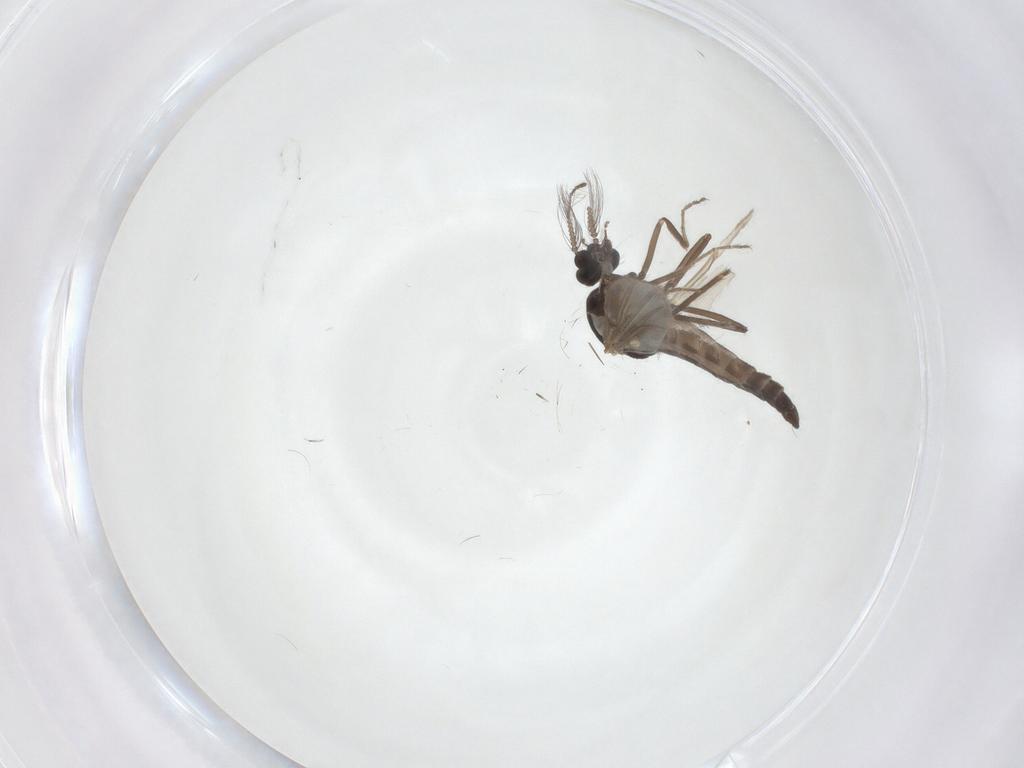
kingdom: Animalia
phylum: Arthropoda
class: Insecta
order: Diptera
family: Ceratopogonidae
